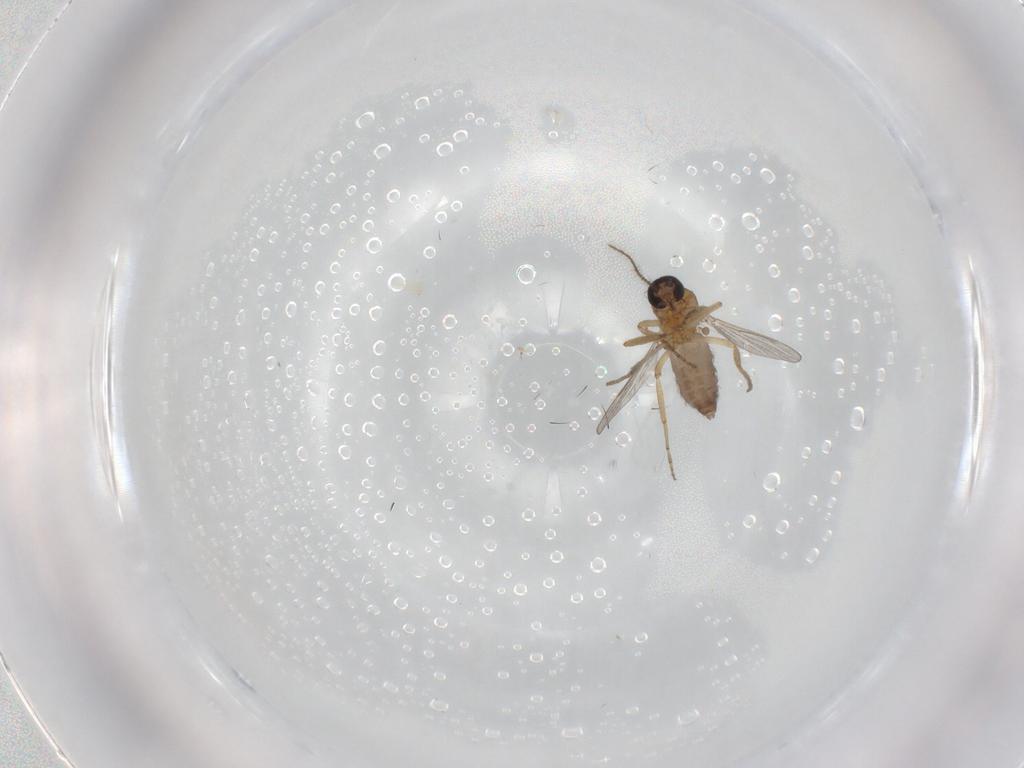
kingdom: Animalia
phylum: Arthropoda
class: Insecta
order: Diptera
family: Ceratopogonidae
